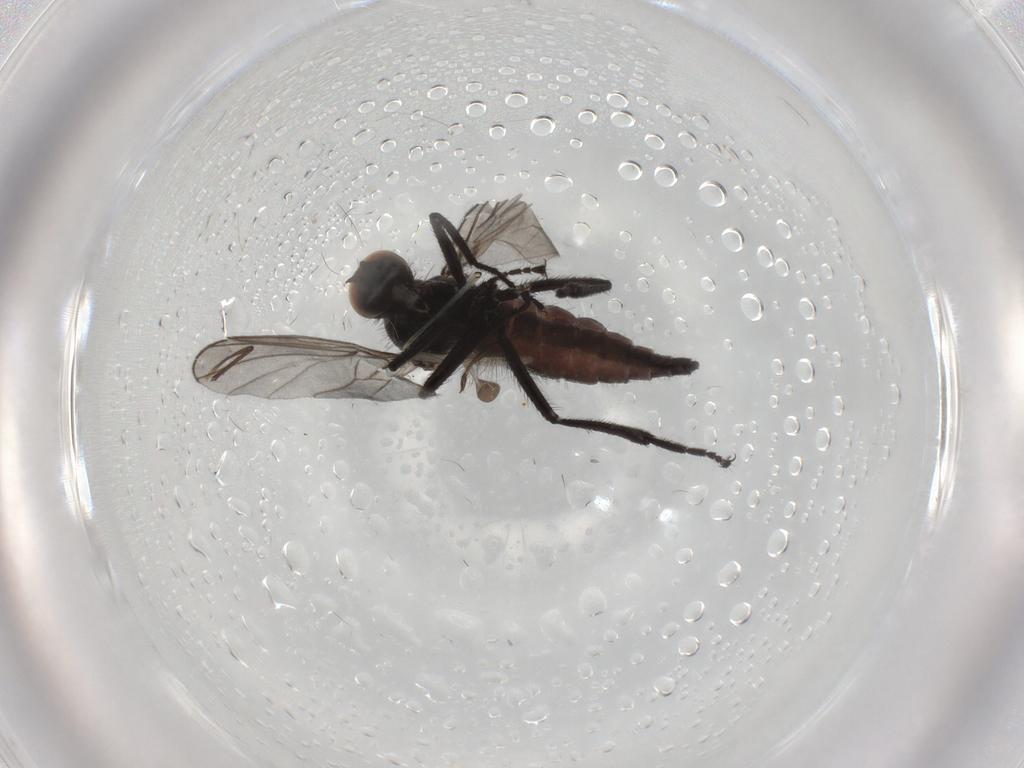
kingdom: Animalia
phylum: Arthropoda
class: Insecta
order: Diptera
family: Hybotidae
